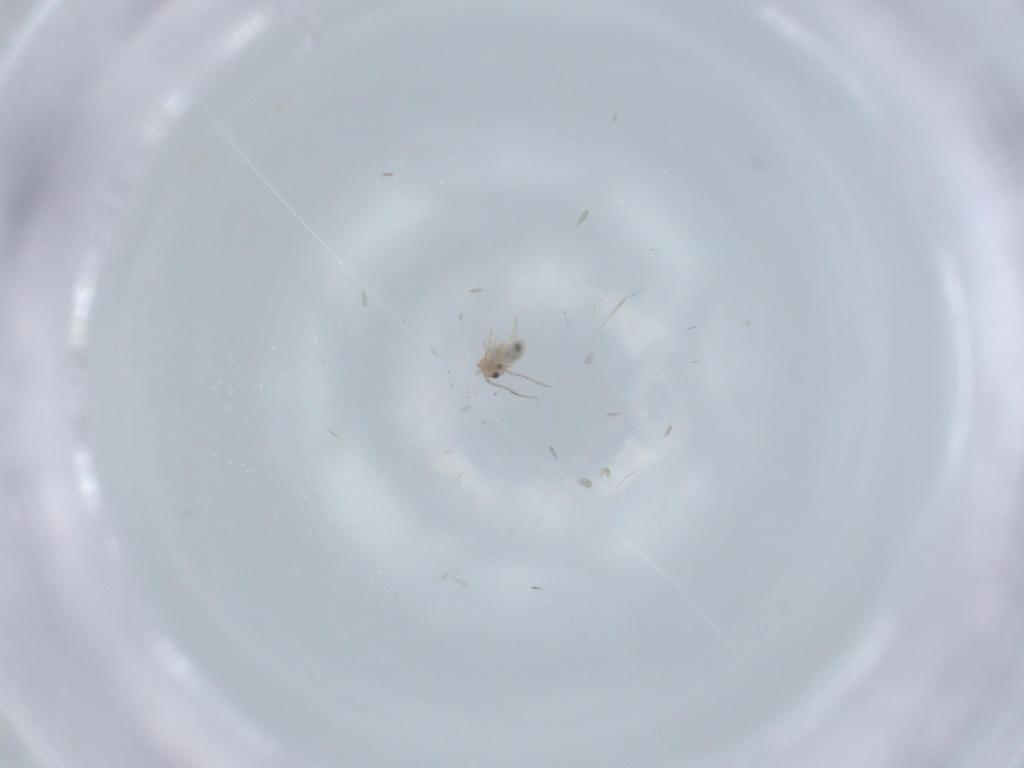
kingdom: Animalia
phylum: Arthropoda
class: Insecta
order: Psocodea
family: Lepidopsocidae
